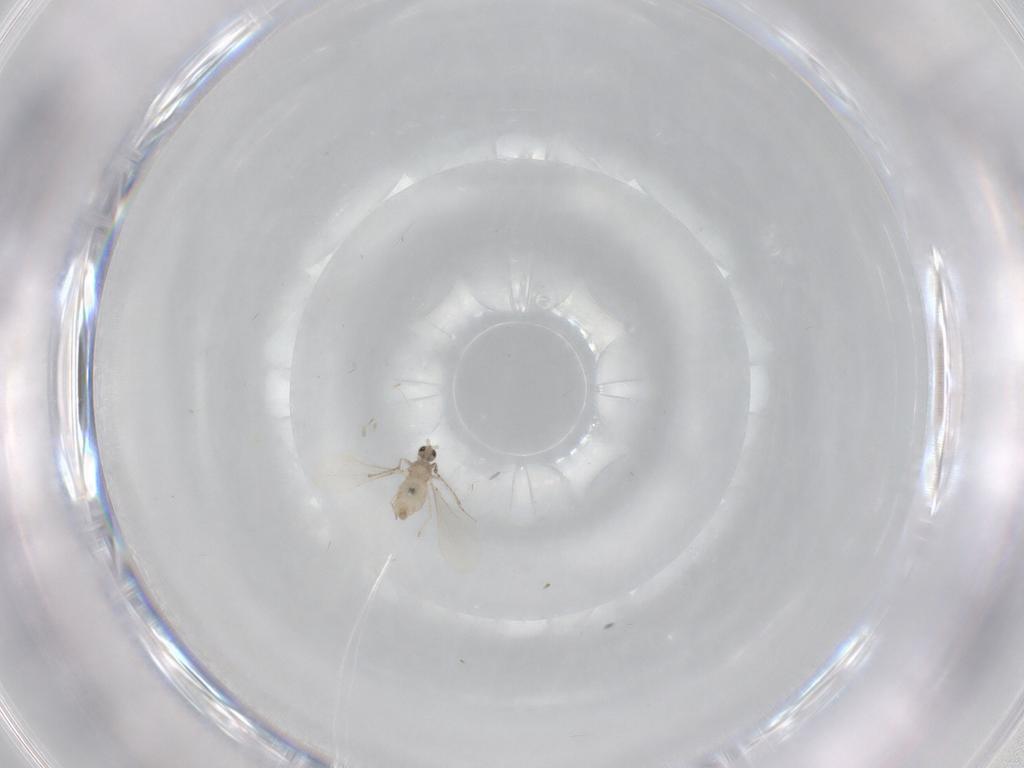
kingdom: Animalia
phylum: Arthropoda
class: Insecta
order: Diptera
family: Cecidomyiidae
